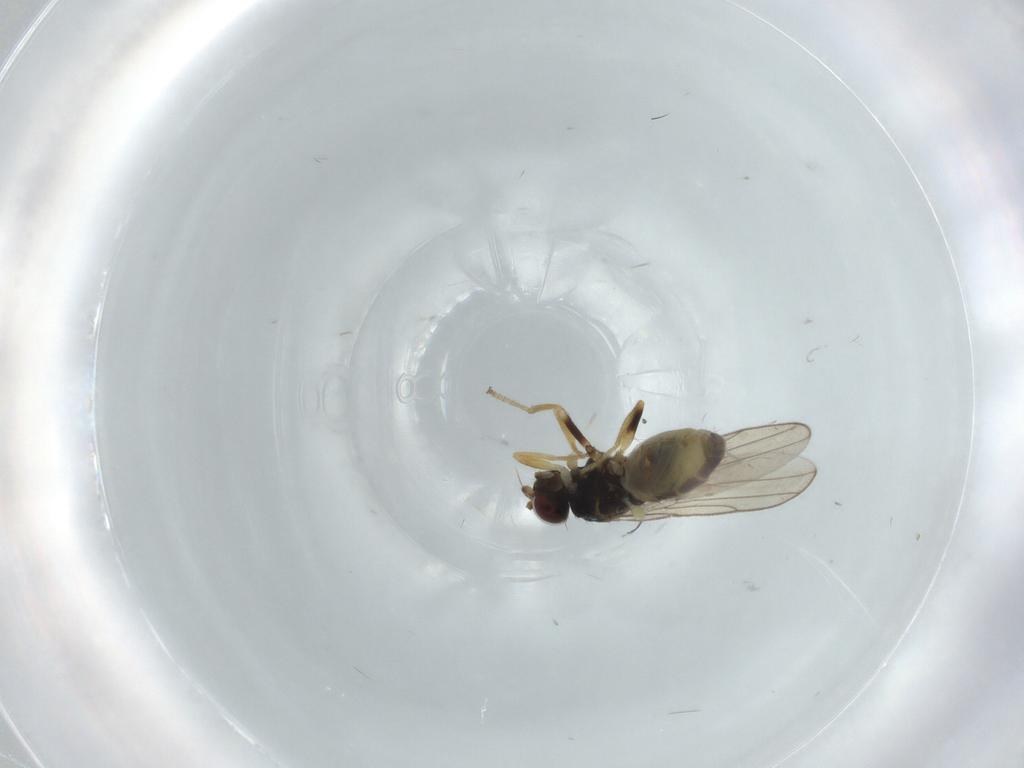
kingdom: Animalia
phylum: Arthropoda
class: Insecta
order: Diptera
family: Chloropidae
